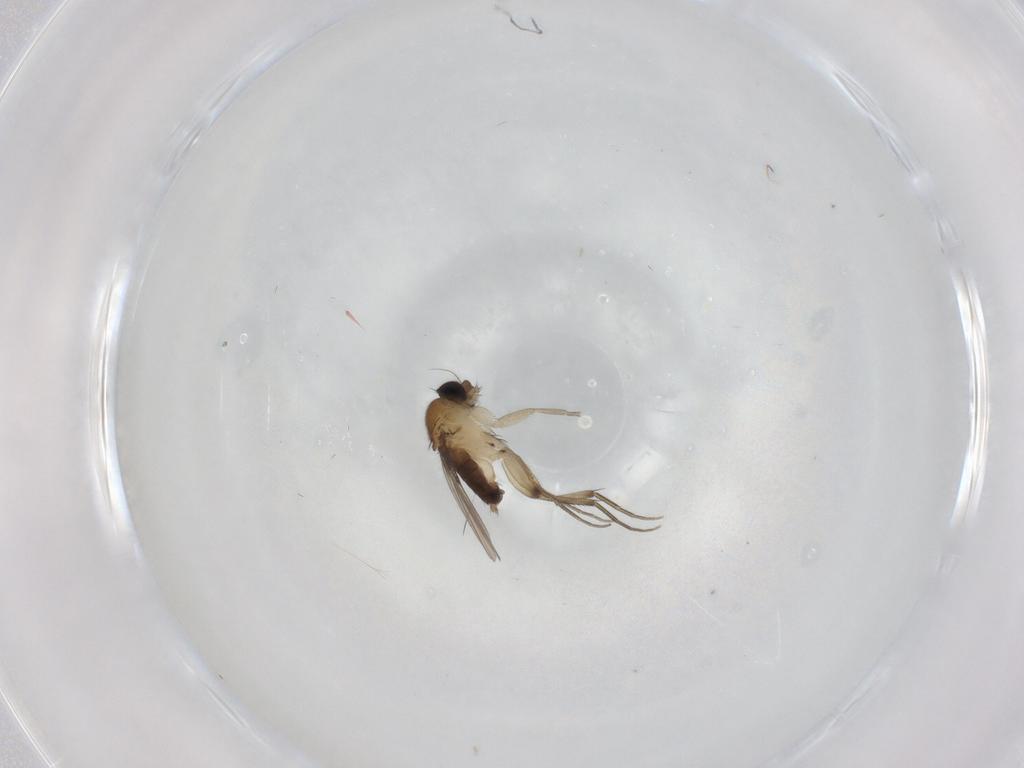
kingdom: Animalia
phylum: Arthropoda
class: Insecta
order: Diptera
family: Phoridae
